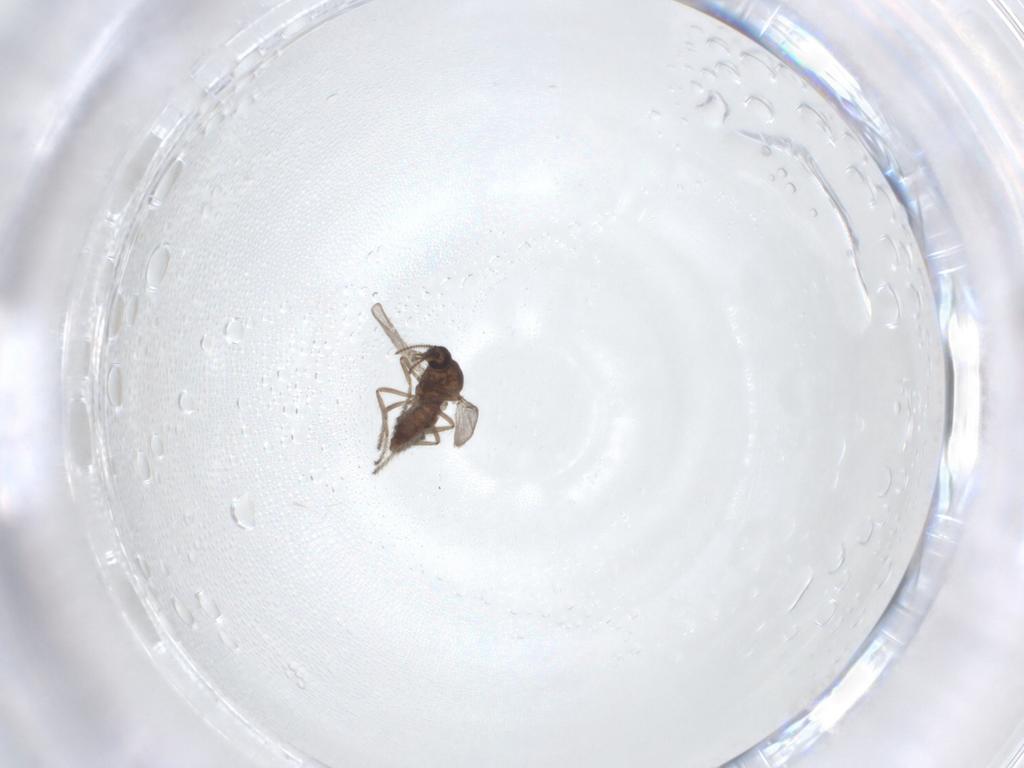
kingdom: Animalia
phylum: Arthropoda
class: Insecta
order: Diptera
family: Ceratopogonidae
